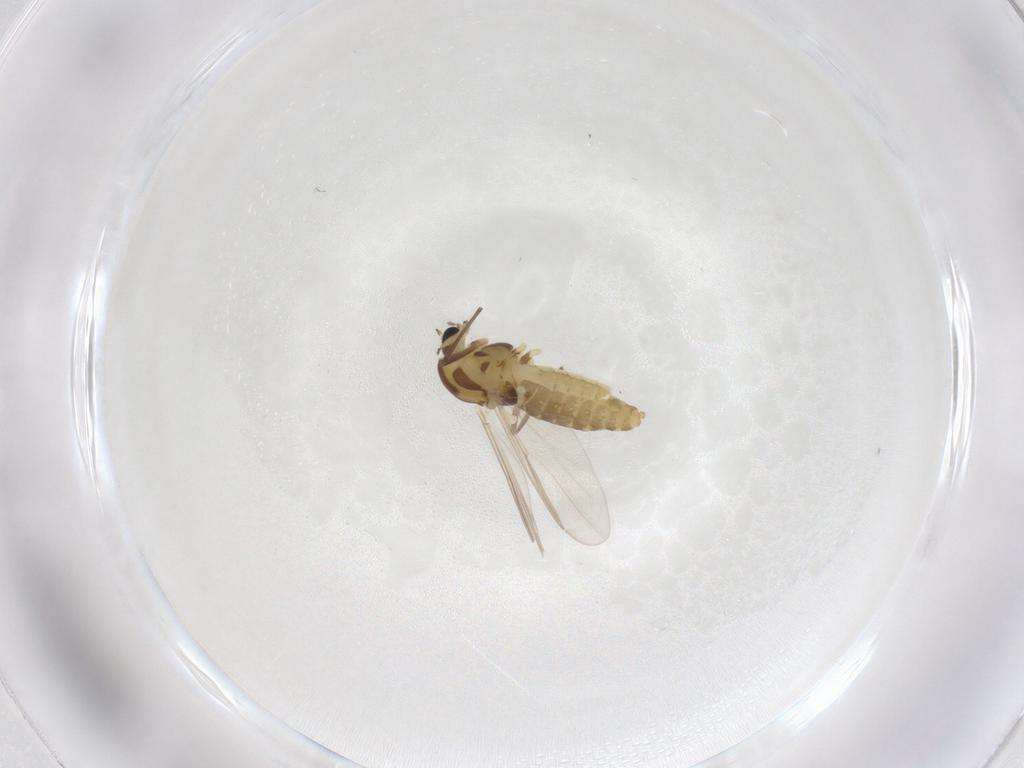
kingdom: Animalia
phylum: Arthropoda
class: Insecta
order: Diptera
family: Chironomidae
